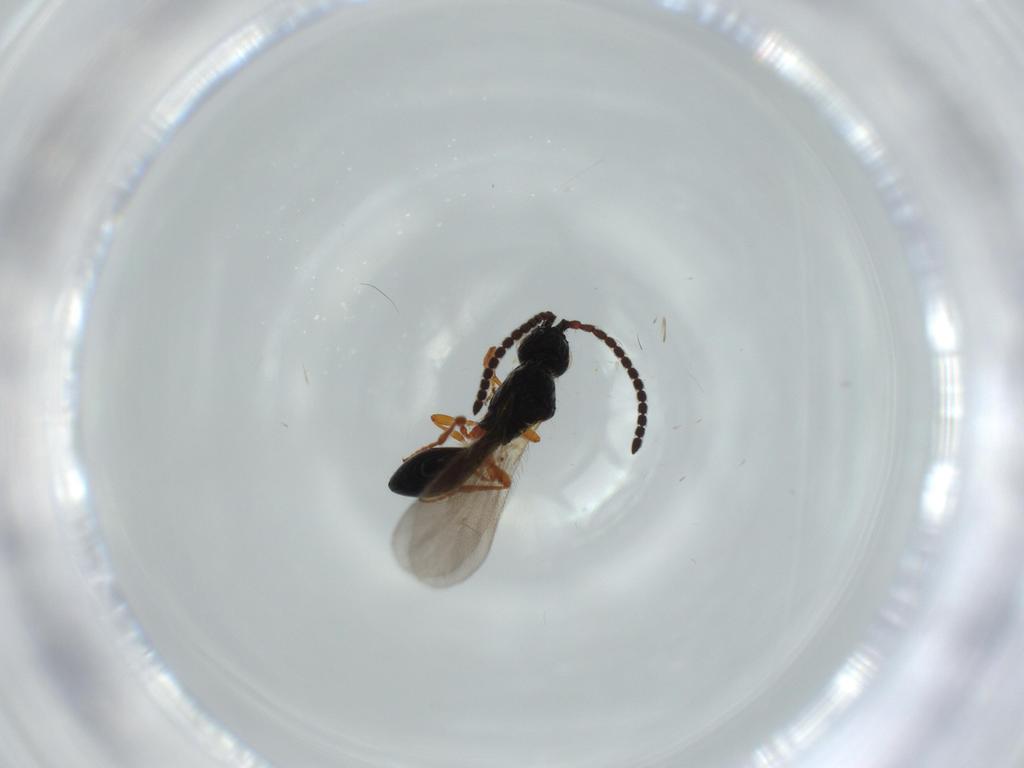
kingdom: Animalia
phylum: Arthropoda
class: Insecta
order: Hymenoptera
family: Diapriidae
